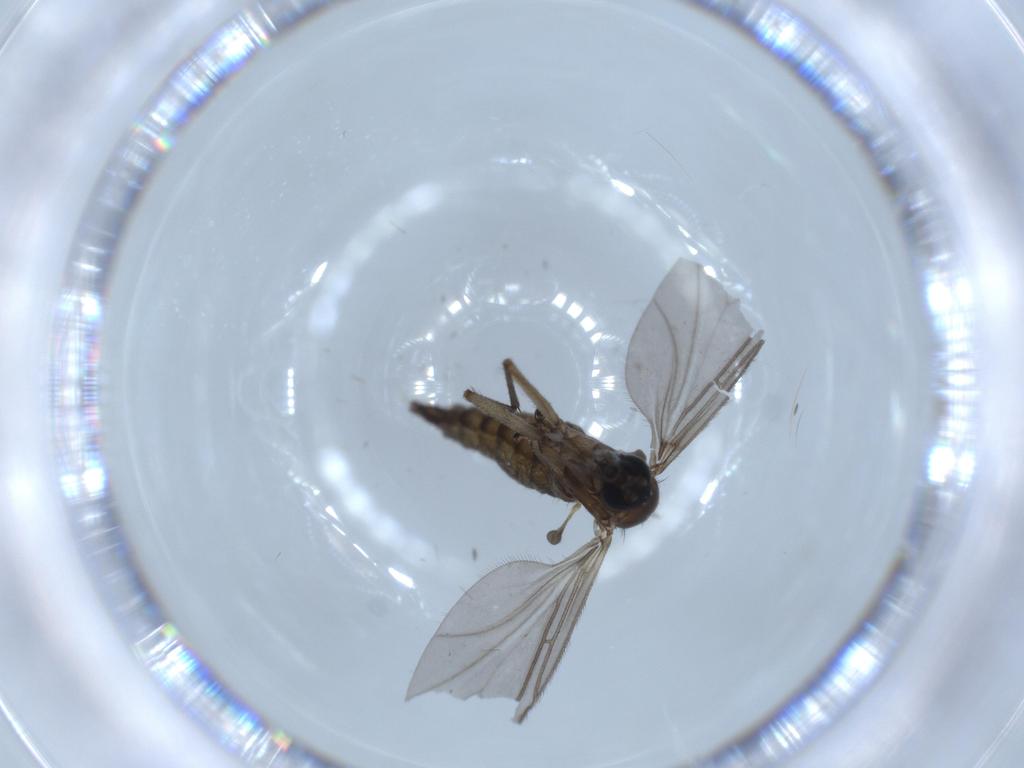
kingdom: Animalia
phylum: Arthropoda
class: Insecta
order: Diptera
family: Sciaridae
